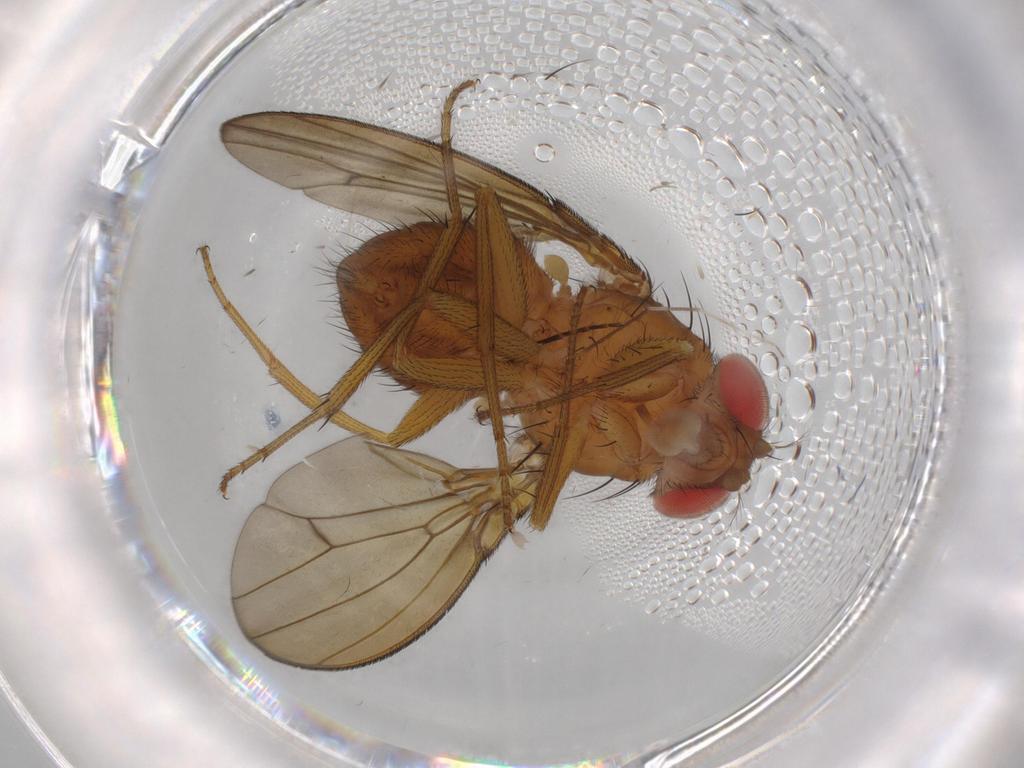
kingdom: Animalia
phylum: Arthropoda
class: Insecta
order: Diptera
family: Drosophilidae
